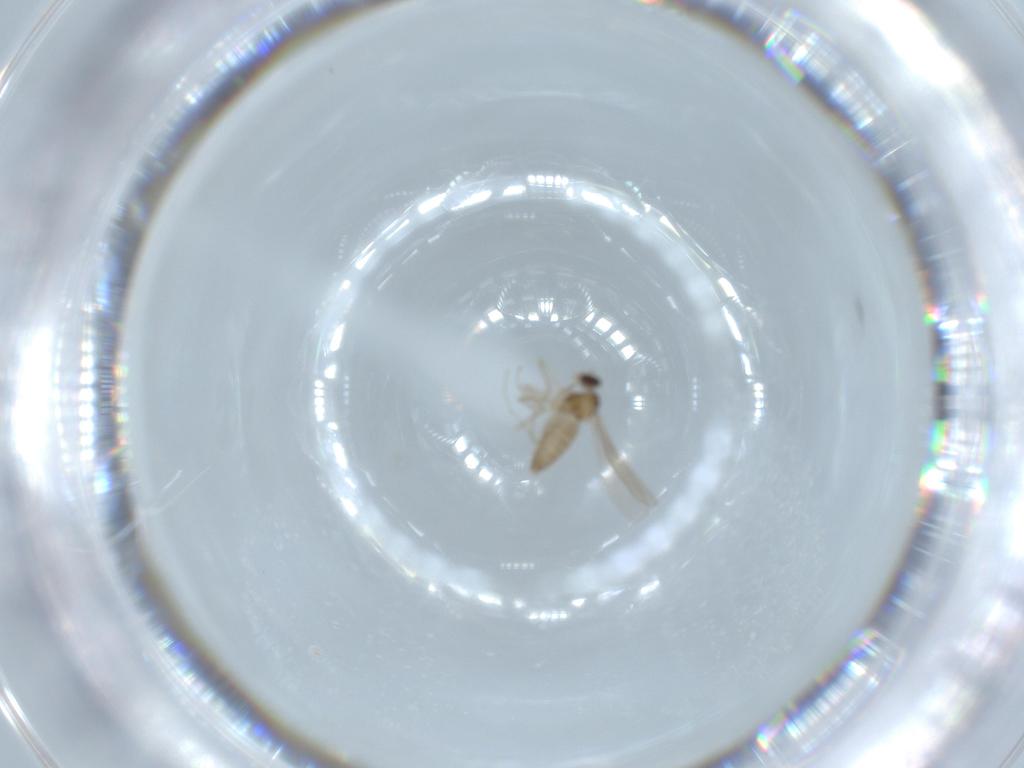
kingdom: Animalia
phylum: Arthropoda
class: Insecta
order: Diptera
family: Cecidomyiidae
